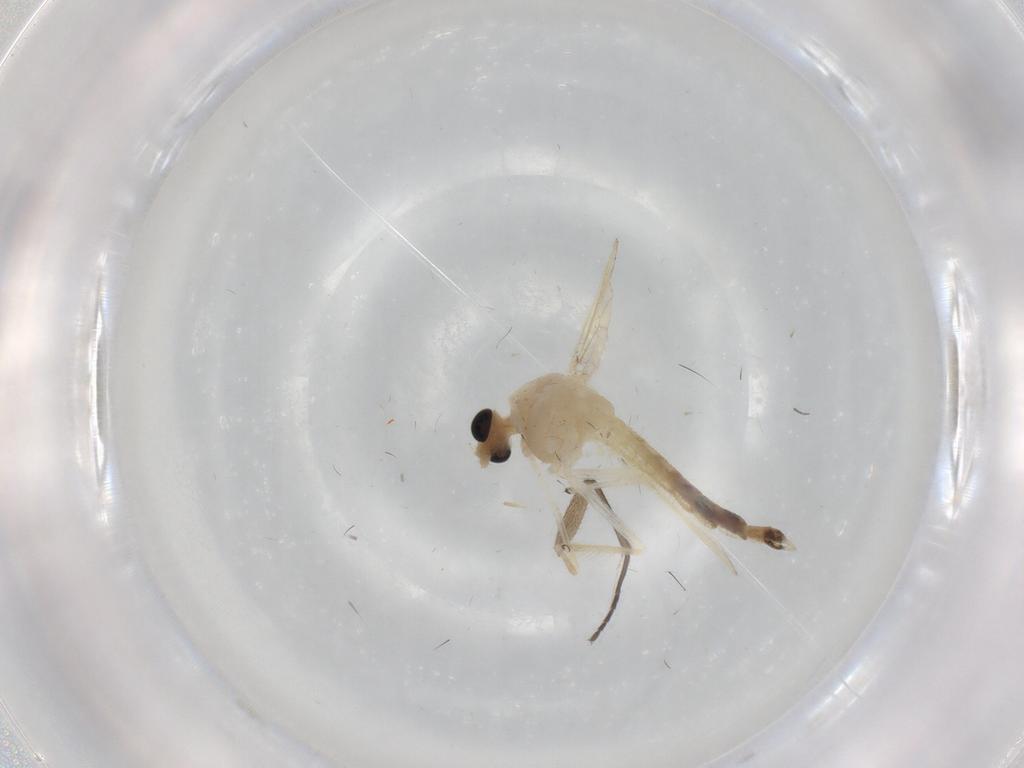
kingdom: Animalia
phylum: Arthropoda
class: Insecta
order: Diptera
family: Chironomidae
